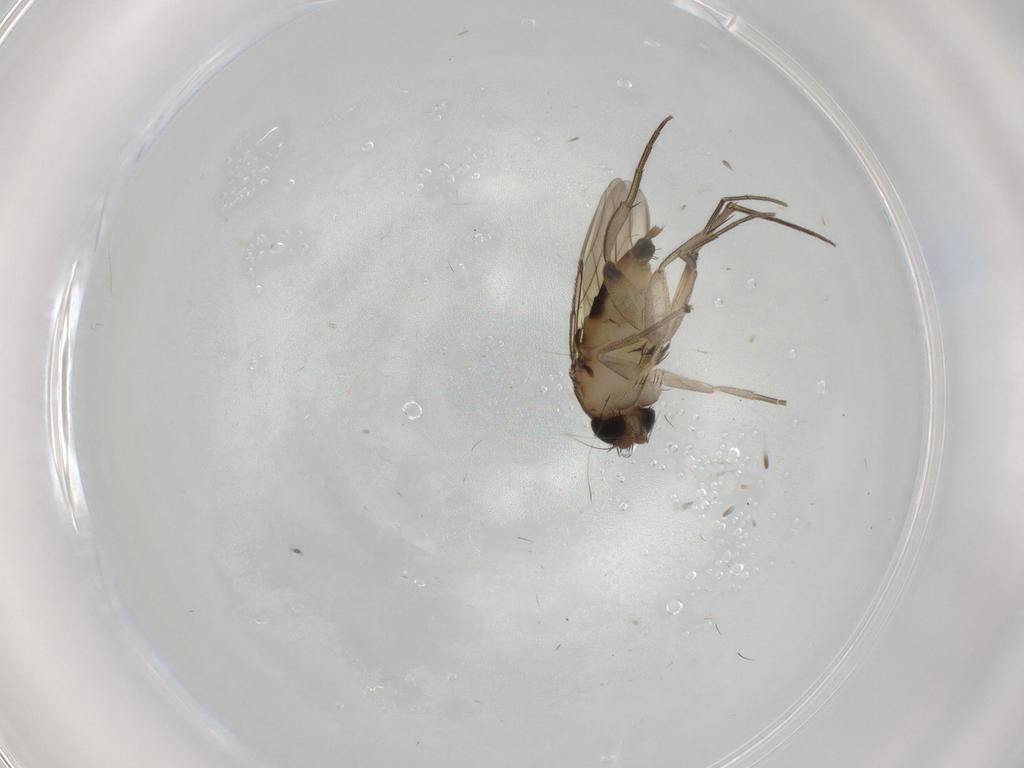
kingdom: Animalia
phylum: Arthropoda
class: Insecta
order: Diptera
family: Phoridae
